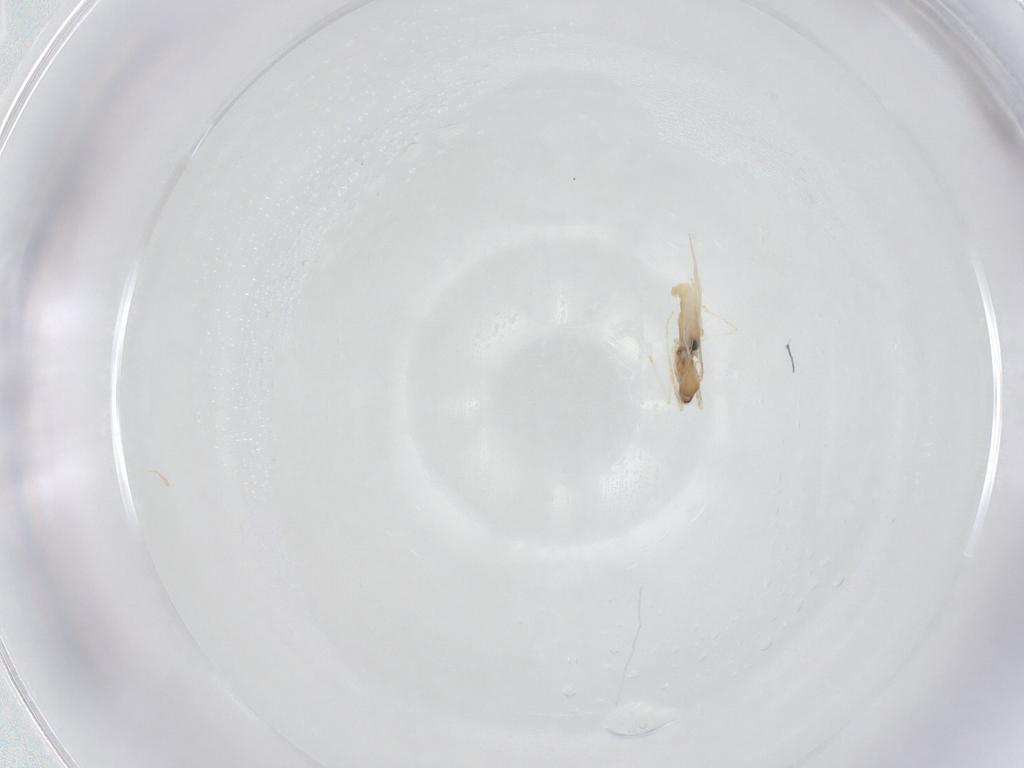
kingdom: Animalia
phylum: Arthropoda
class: Insecta
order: Diptera
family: Cecidomyiidae
